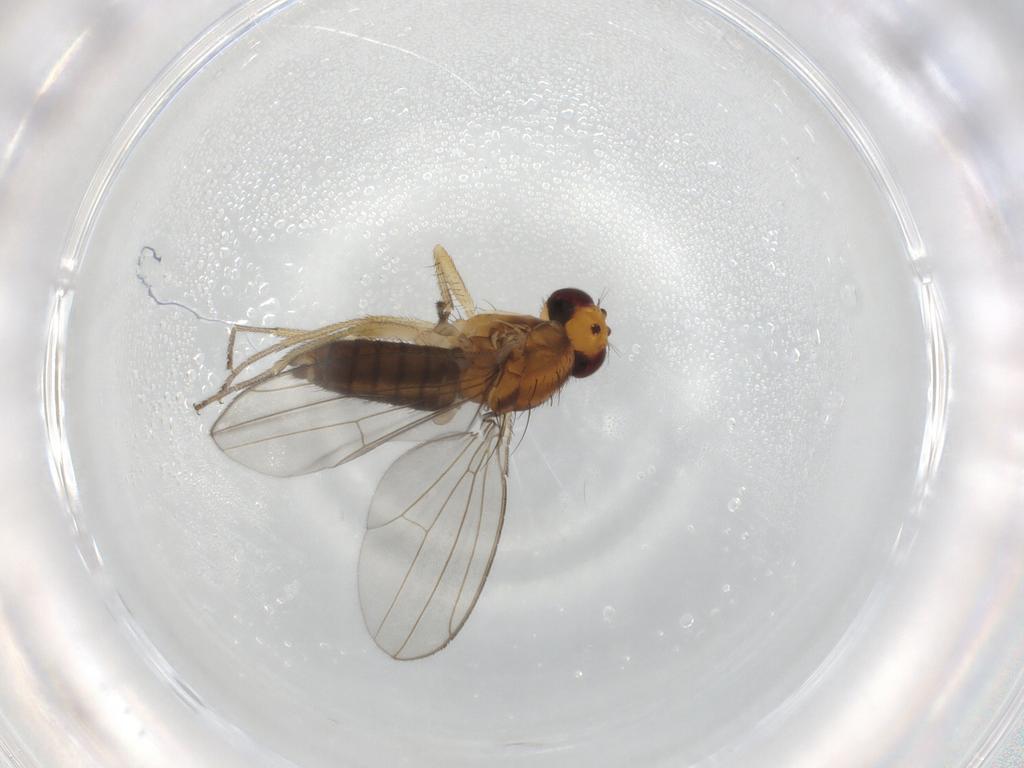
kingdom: Animalia
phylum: Arthropoda
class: Insecta
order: Diptera
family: Drosophilidae
